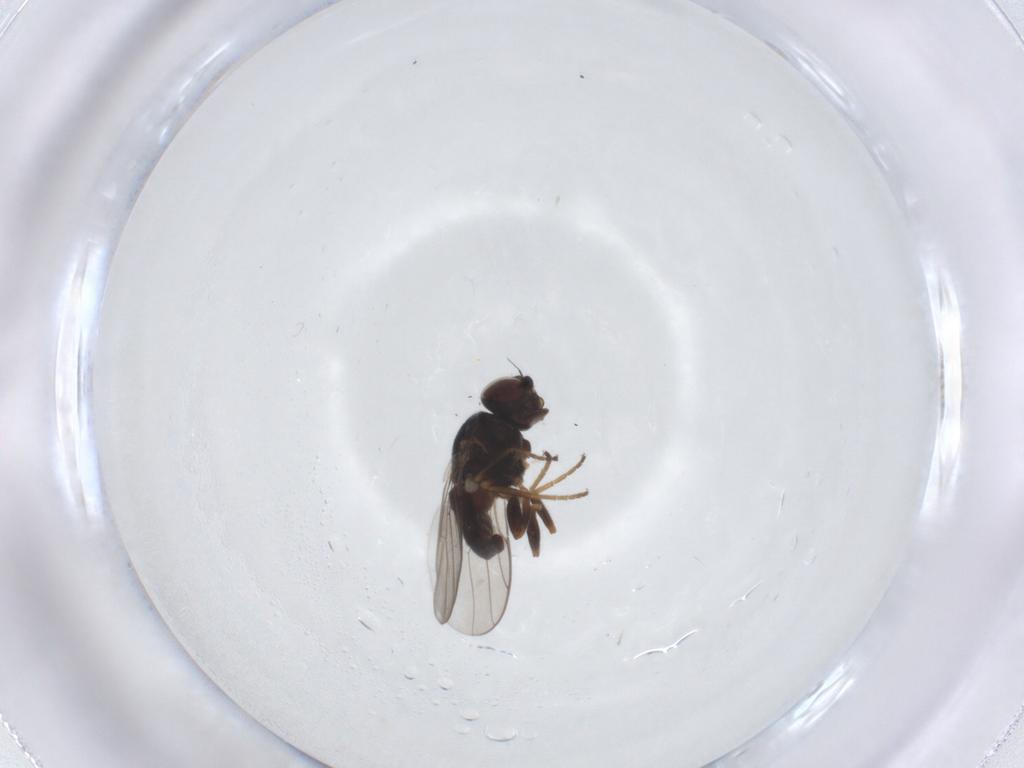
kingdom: Animalia
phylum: Arthropoda
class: Insecta
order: Diptera
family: Chloropidae
